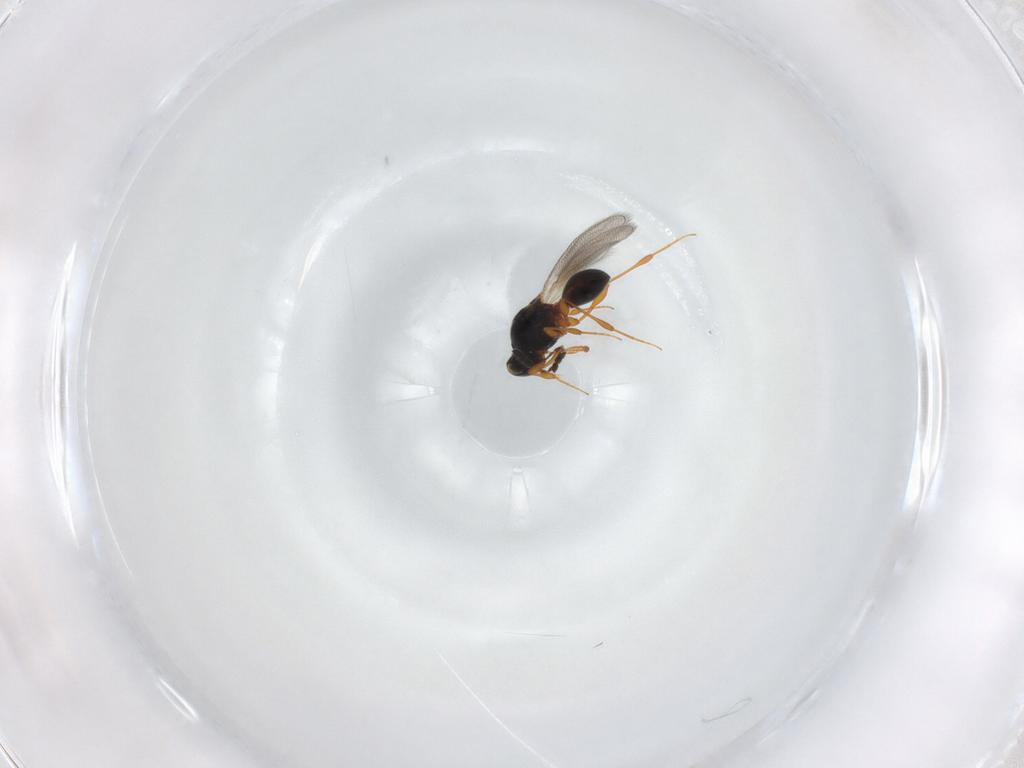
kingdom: Animalia
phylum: Arthropoda
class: Insecta
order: Hymenoptera
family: Platygastridae
